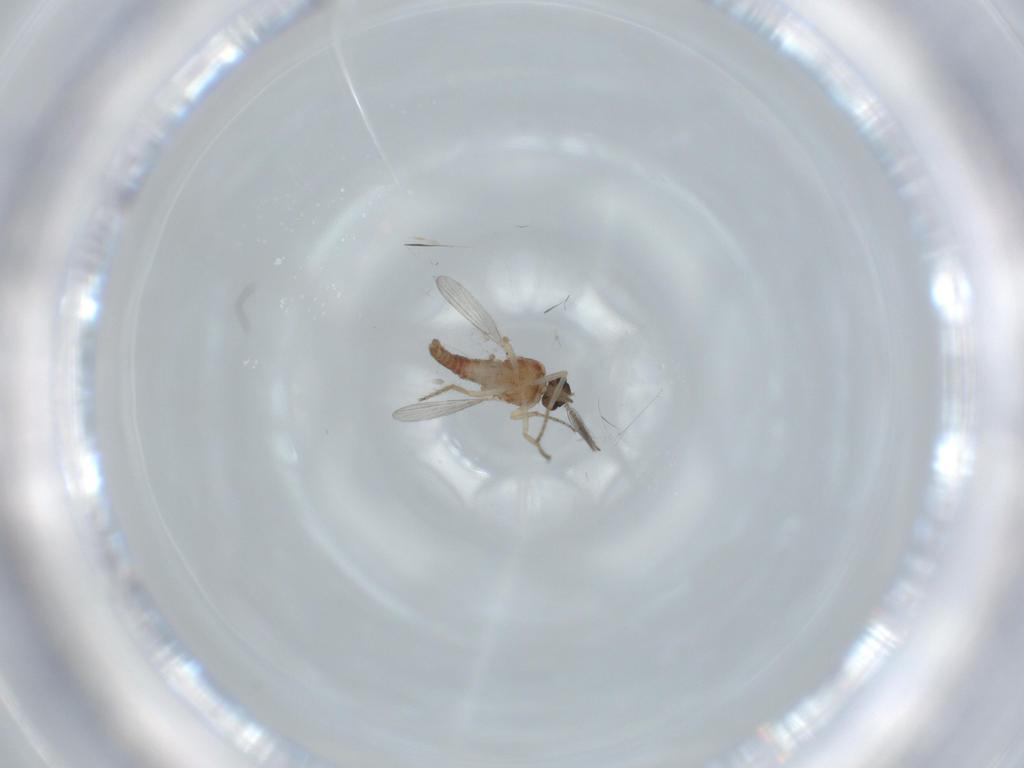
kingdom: Animalia
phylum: Arthropoda
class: Insecta
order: Diptera
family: Ceratopogonidae
